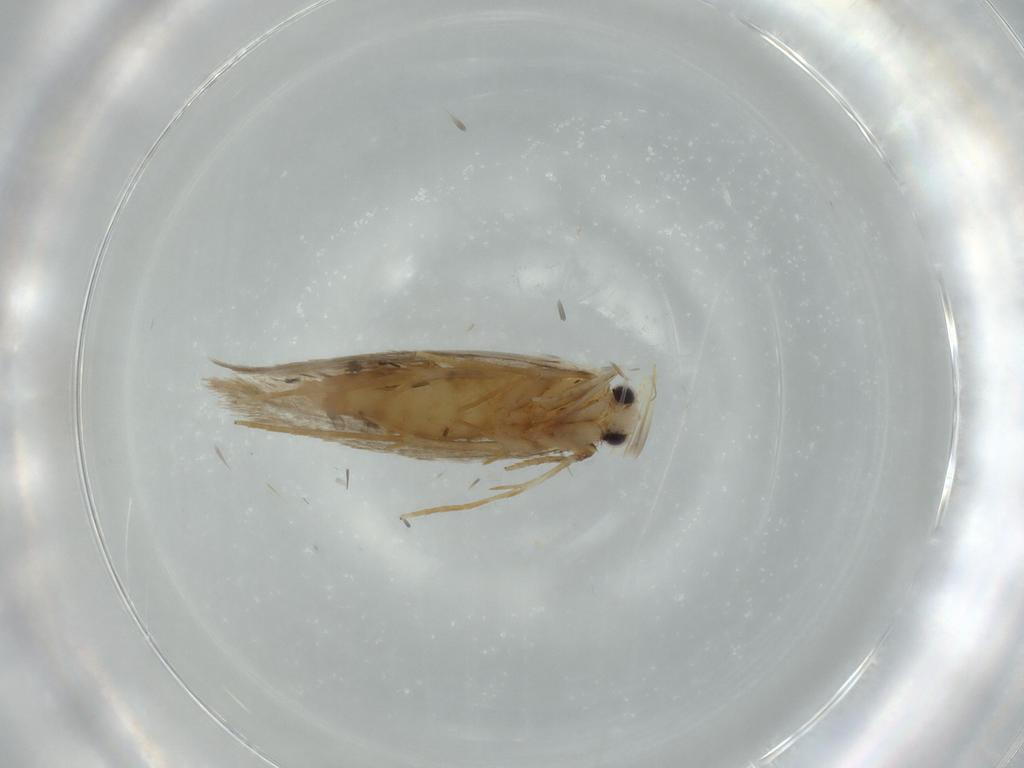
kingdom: Animalia
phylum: Arthropoda
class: Insecta
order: Lepidoptera
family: Tineidae
